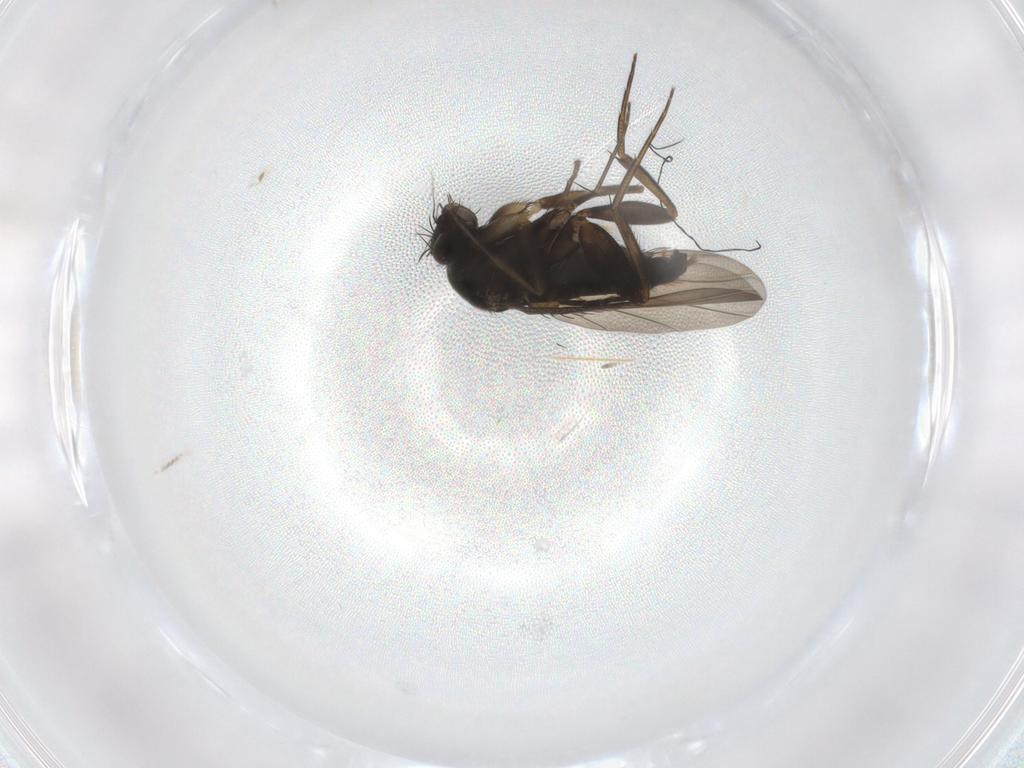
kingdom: Animalia
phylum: Arthropoda
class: Insecta
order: Diptera
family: Phoridae
